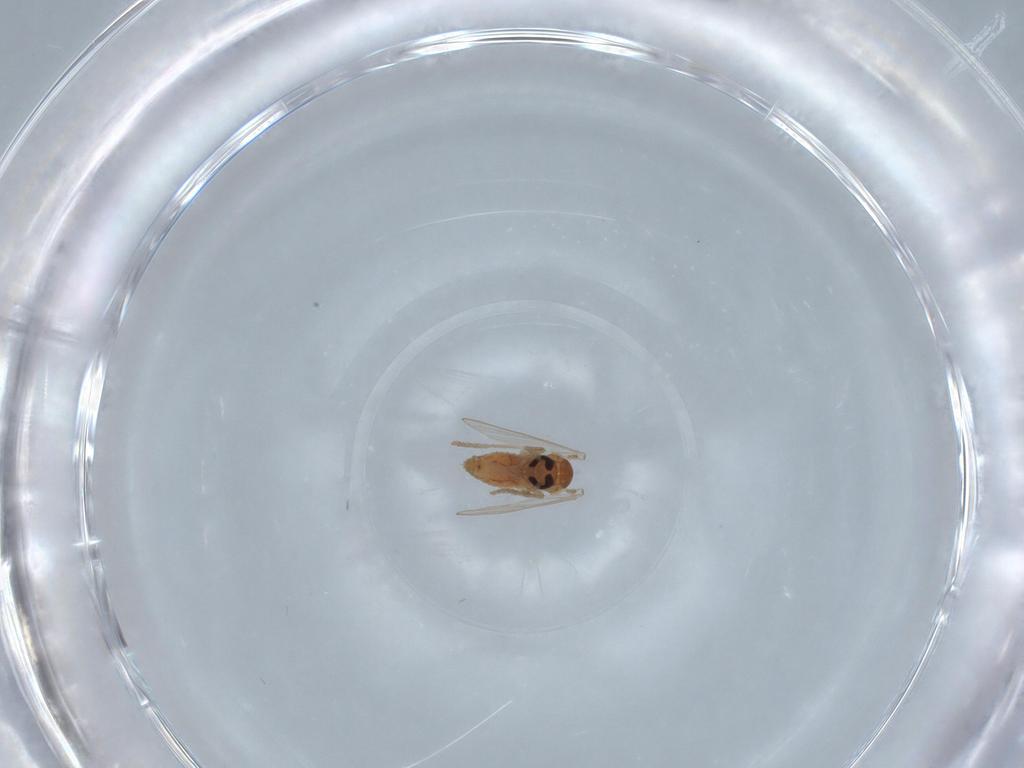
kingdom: Animalia
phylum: Arthropoda
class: Insecta
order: Diptera
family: Psychodidae
